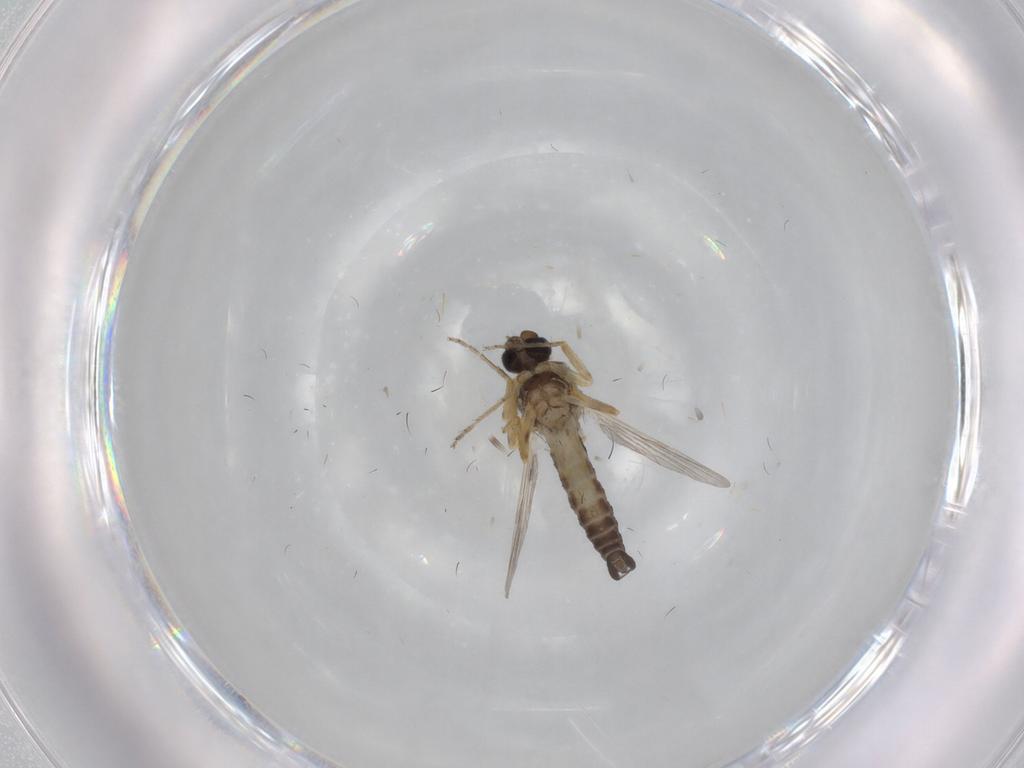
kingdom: Animalia
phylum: Arthropoda
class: Insecta
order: Diptera
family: Ceratopogonidae
